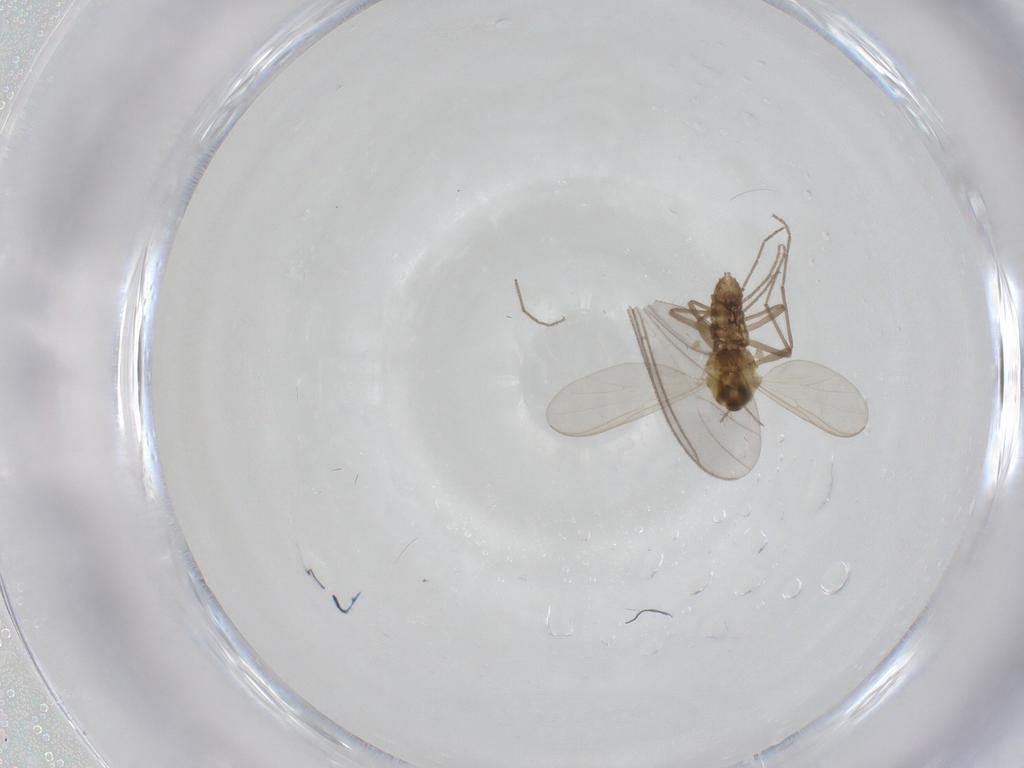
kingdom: Animalia
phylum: Arthropoda
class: Insecta
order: Diptera
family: Chironomidae
